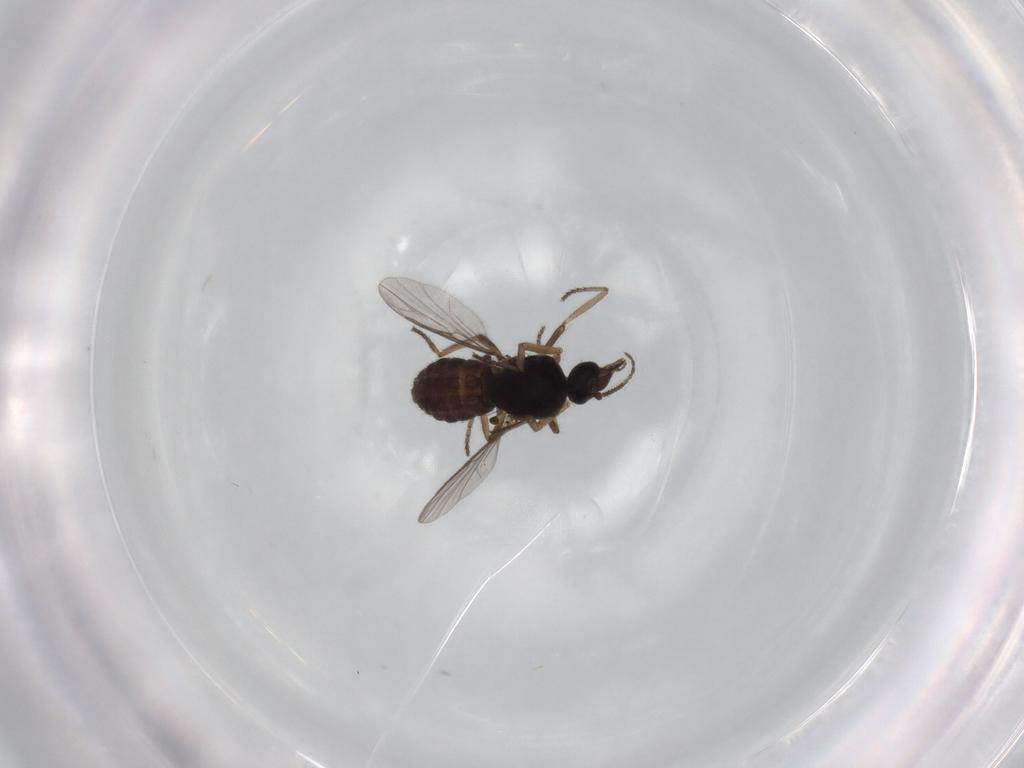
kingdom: Animalia
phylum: Arthropoda
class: Insecta
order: Diptera
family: Ceratopogonidae
